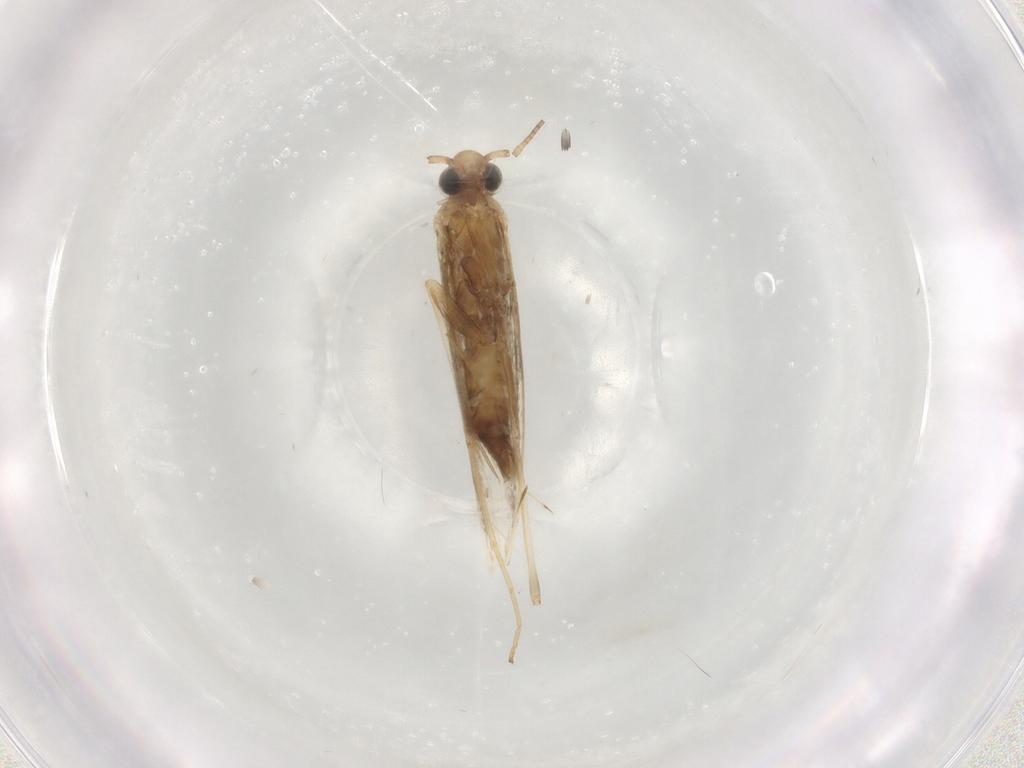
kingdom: Animalia
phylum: Arthropoda
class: Insecta
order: Lepidoptera
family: Gracillariidae
